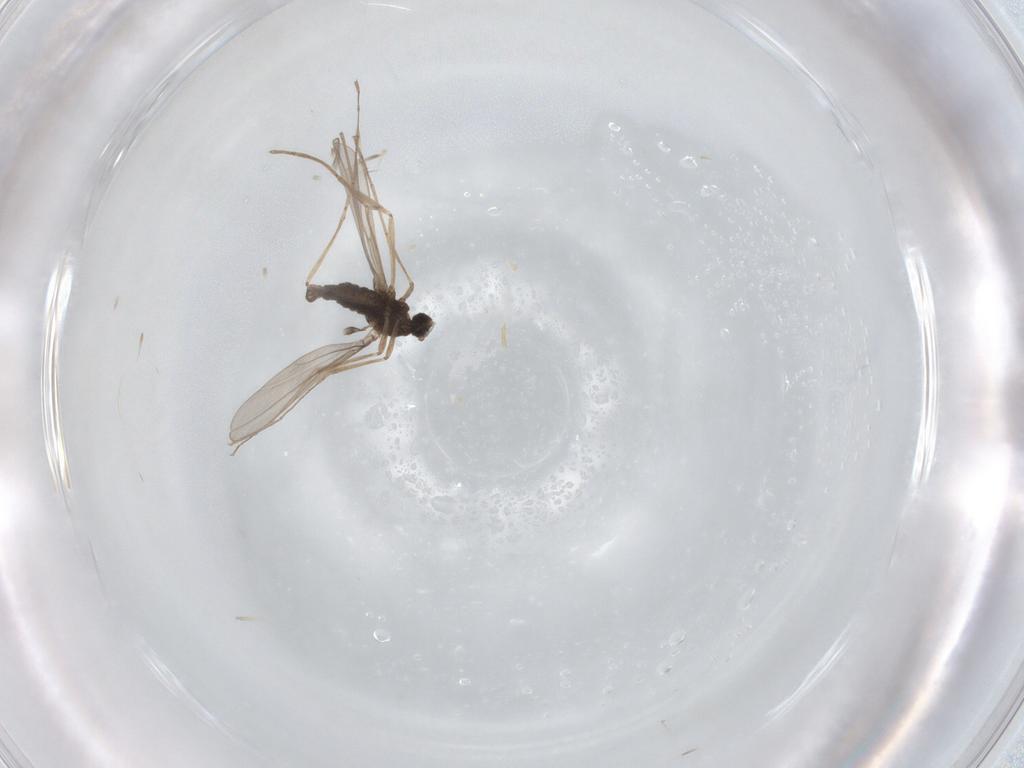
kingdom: Animalia
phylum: Arthropoda
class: Insecta
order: Diptera
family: Cecidomyiidae
